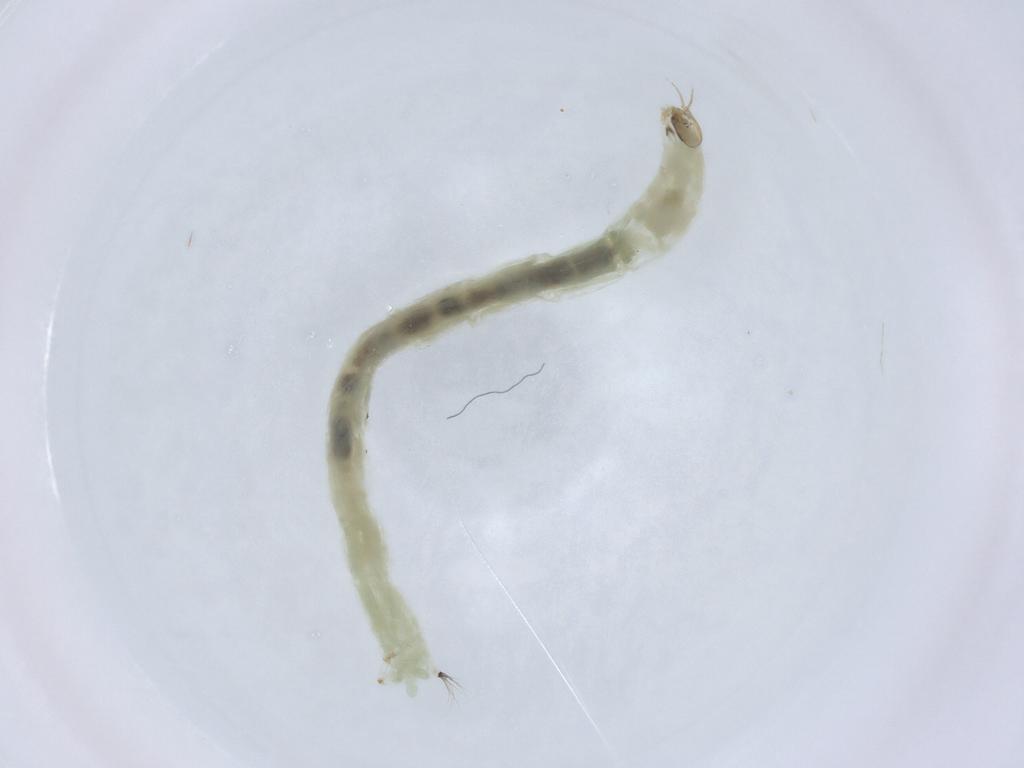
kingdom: Animalia
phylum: Arthropoda
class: Insecta
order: Diptera
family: Chironomidae
